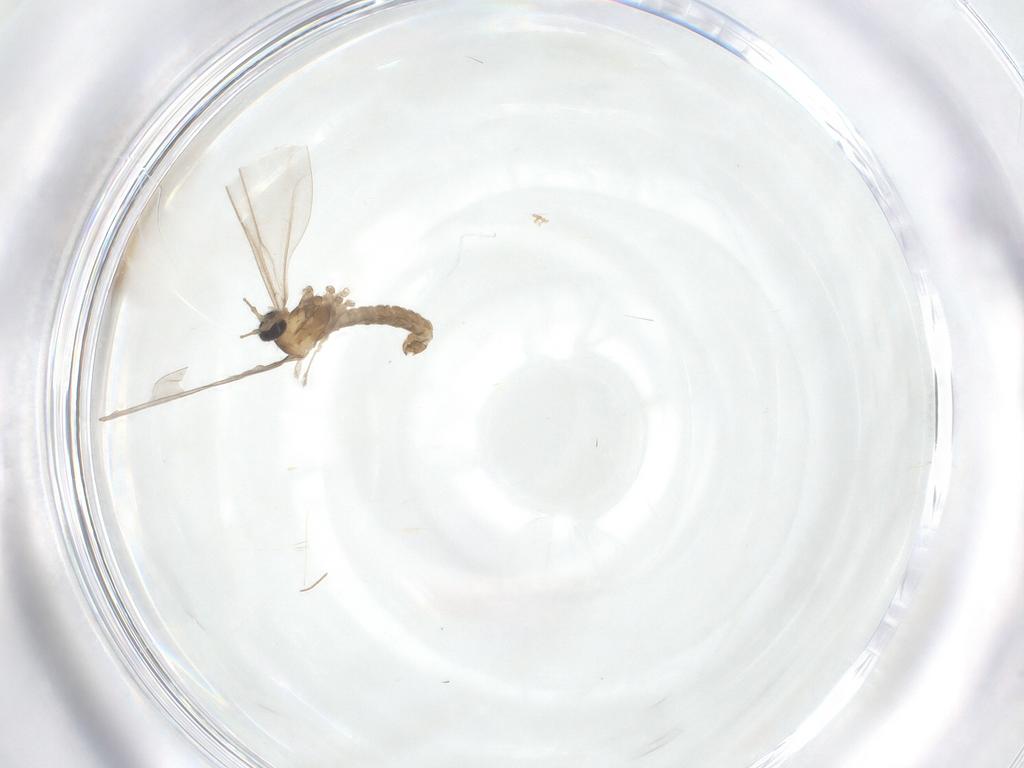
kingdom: Animalia
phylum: Arthropoda
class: Insecta
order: Diptera
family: Cecidomyiidae
